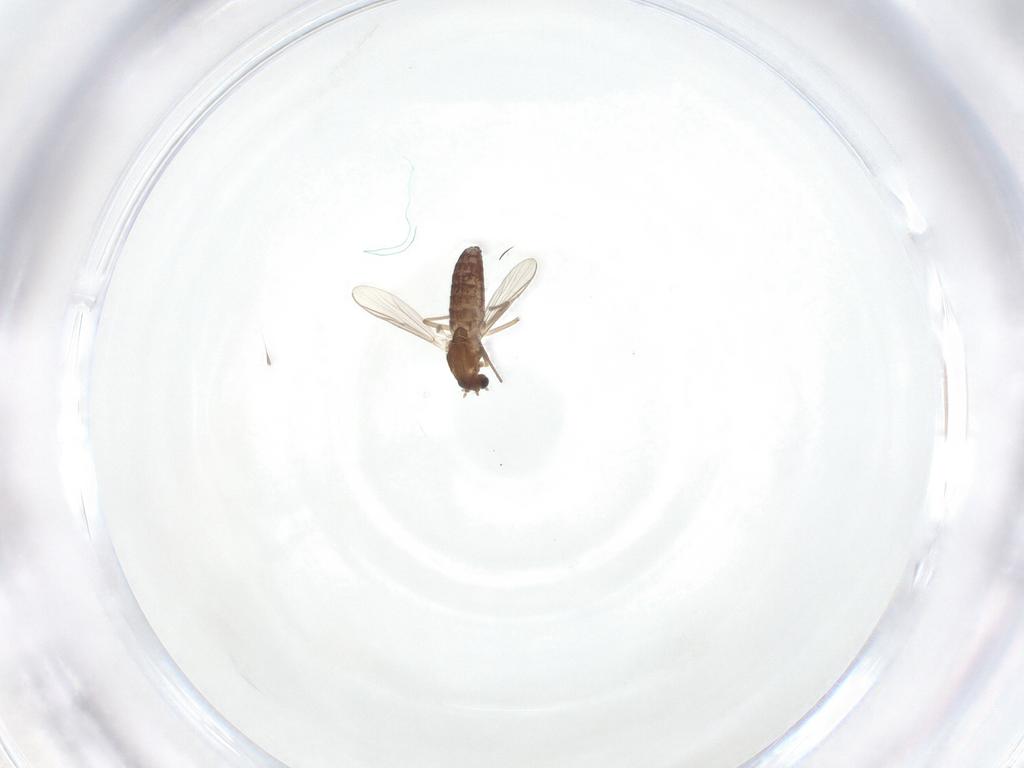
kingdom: Animalia
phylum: Arthropoda
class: Insecta
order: Diptera
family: Chironomidae
